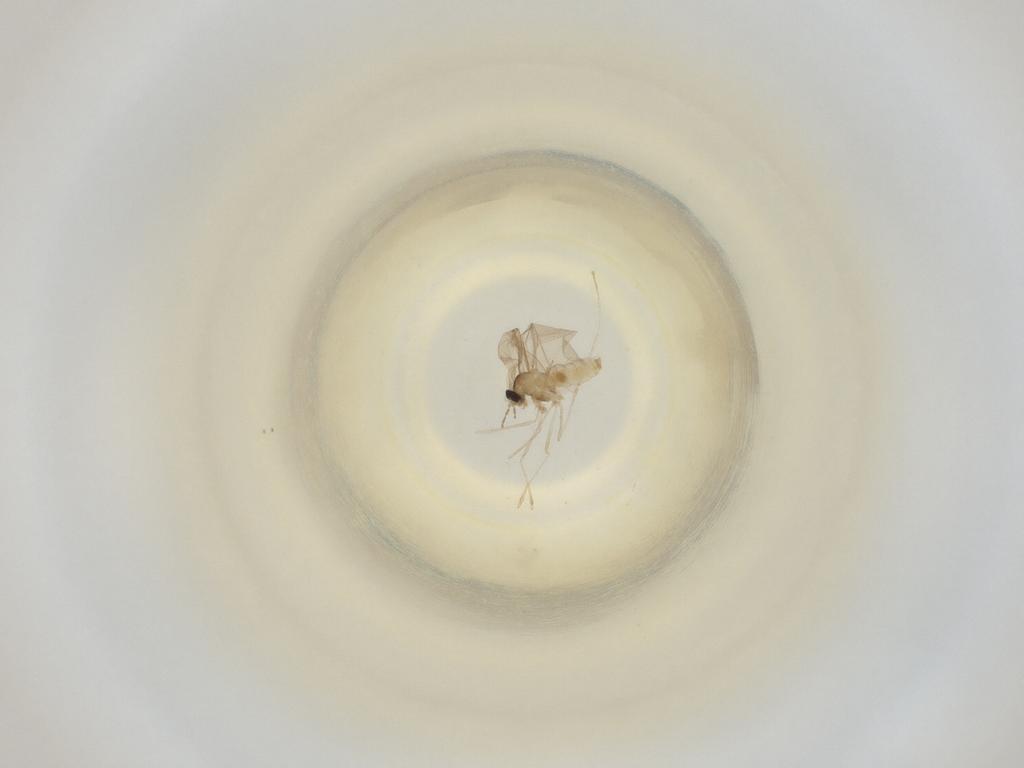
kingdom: Animalia
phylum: Arthropoda
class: Insecta
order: Diptera
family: Cecidomyiidae
